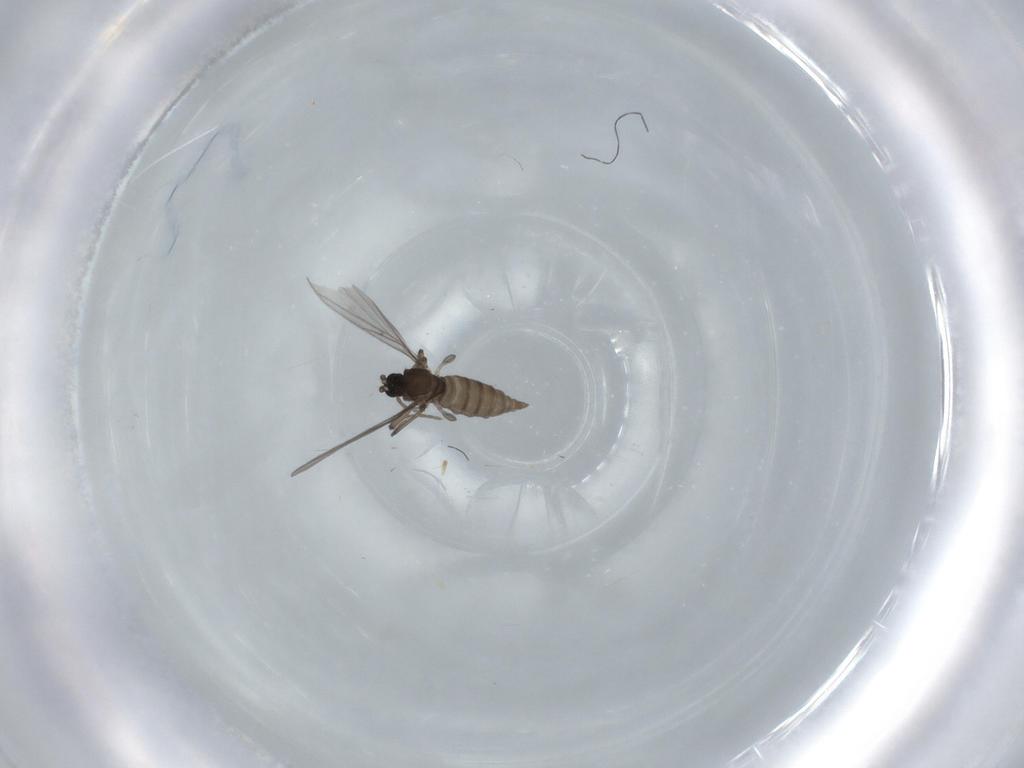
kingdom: Animalia
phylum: Arthropoda
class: Insecta
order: Diptera
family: Sciaridae
